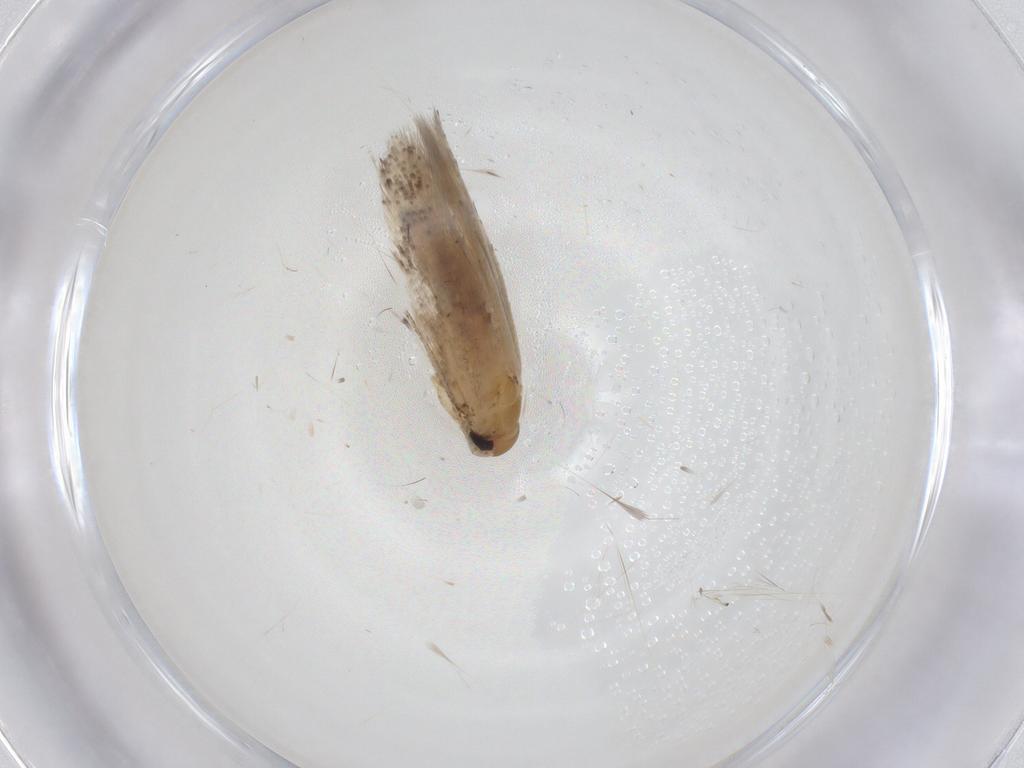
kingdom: Animalia
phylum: Arthropoda
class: Insecta
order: Lepidoptera
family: Gelechiidae
